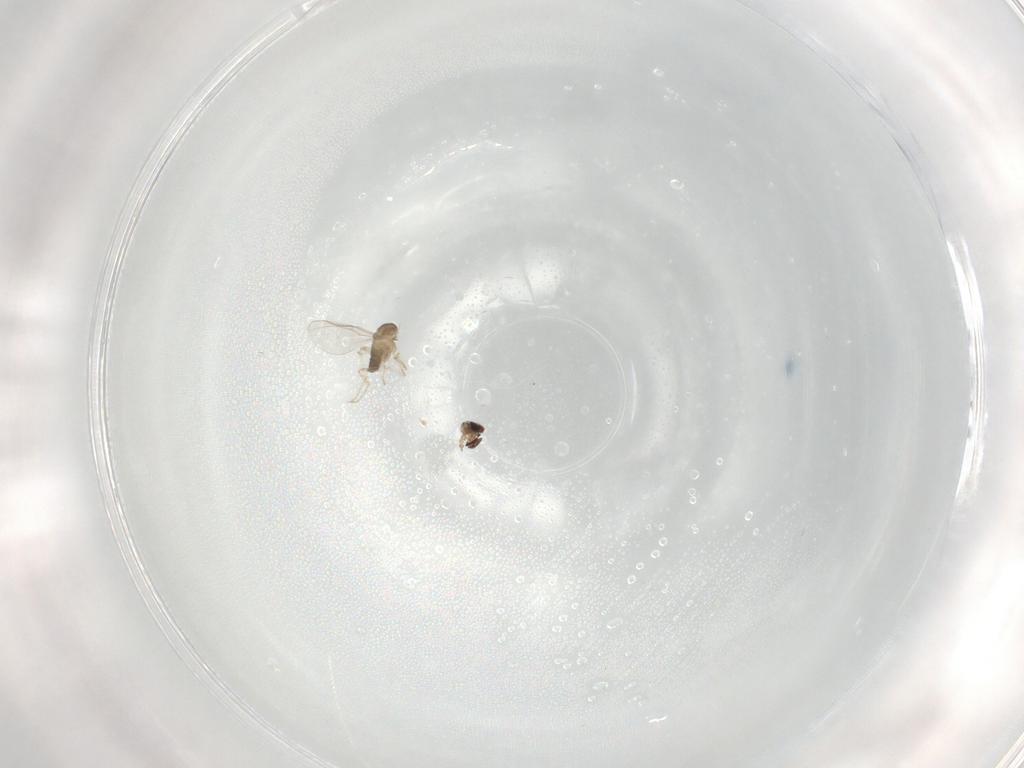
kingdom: Animalia
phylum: Arthropoda
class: Insecta
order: Diptera
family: Cecidomyiidae
